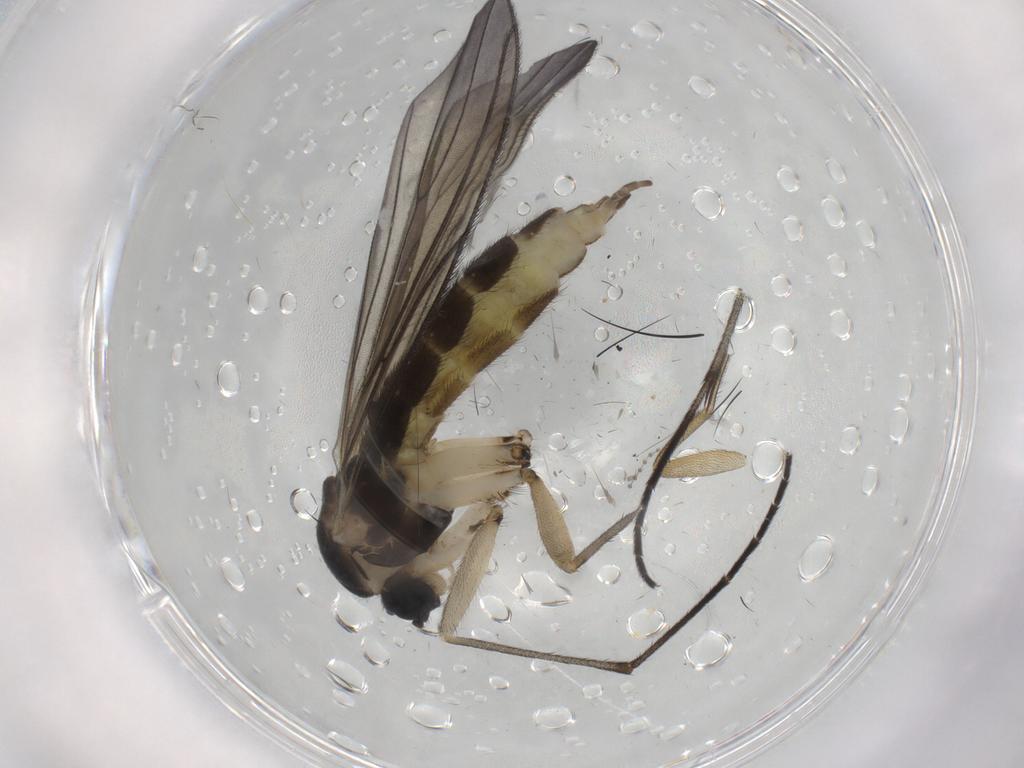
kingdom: Animalia
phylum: Arthropoda
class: Insecta
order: Diptera
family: Sciaridae
